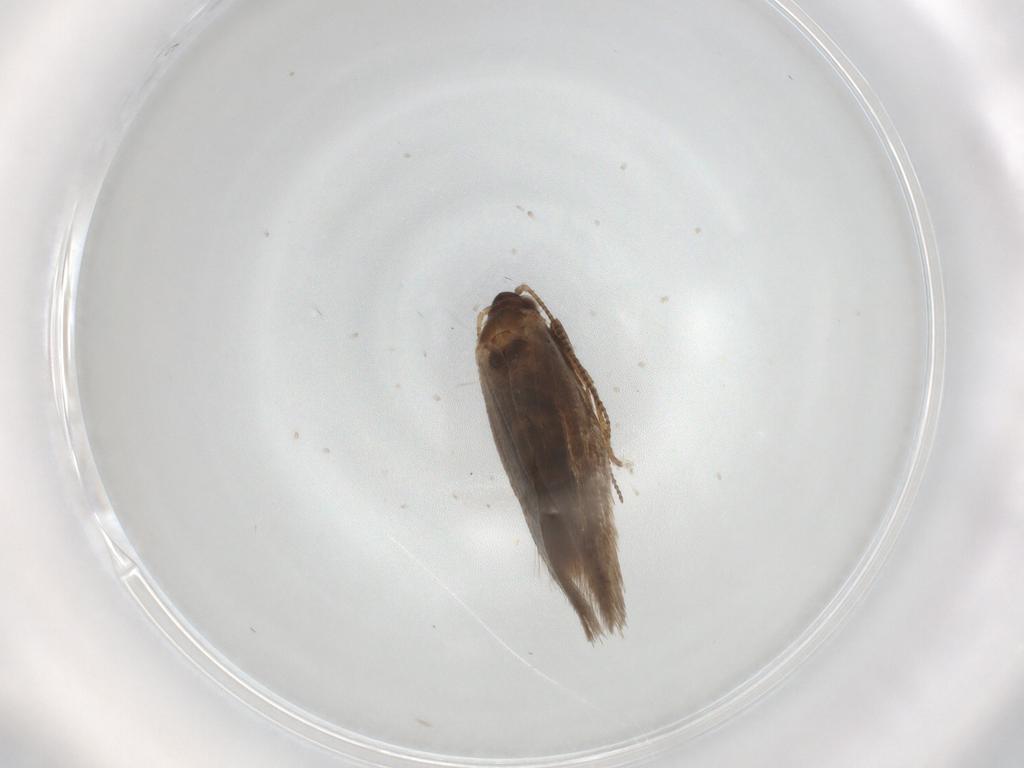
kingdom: Animalia
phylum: Arthropoda
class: Insecta
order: Lepidoptera
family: Nepticulidae
